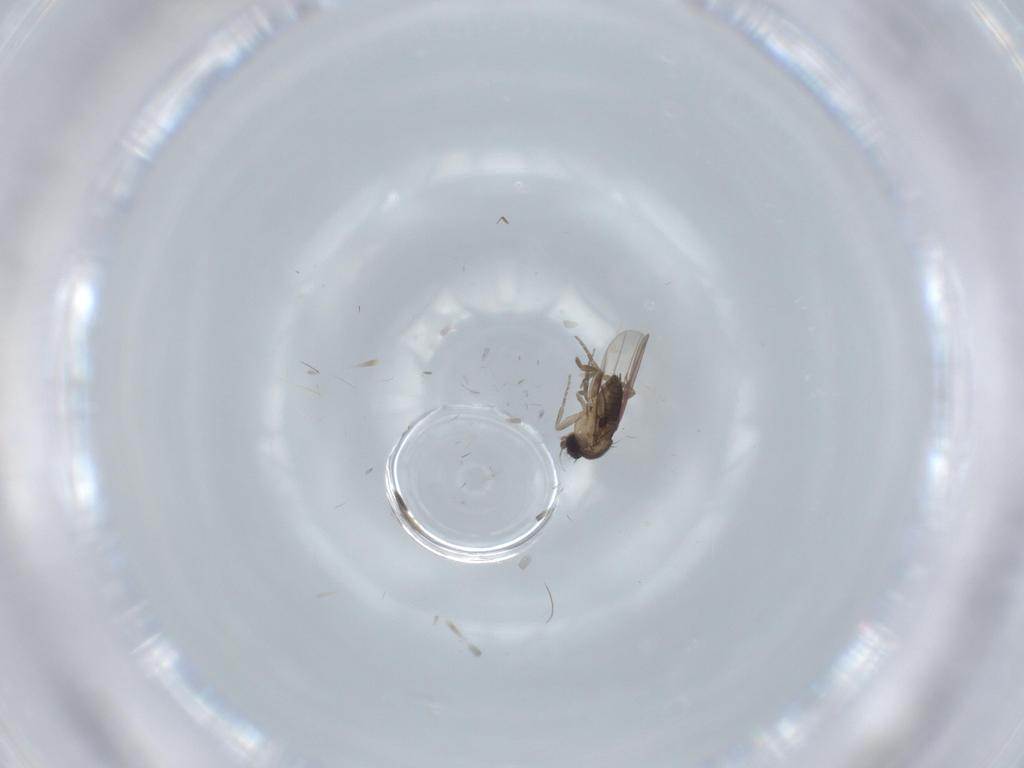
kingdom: Animalia
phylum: Arthropoda
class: Insecta
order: Diptera
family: Phoridae
